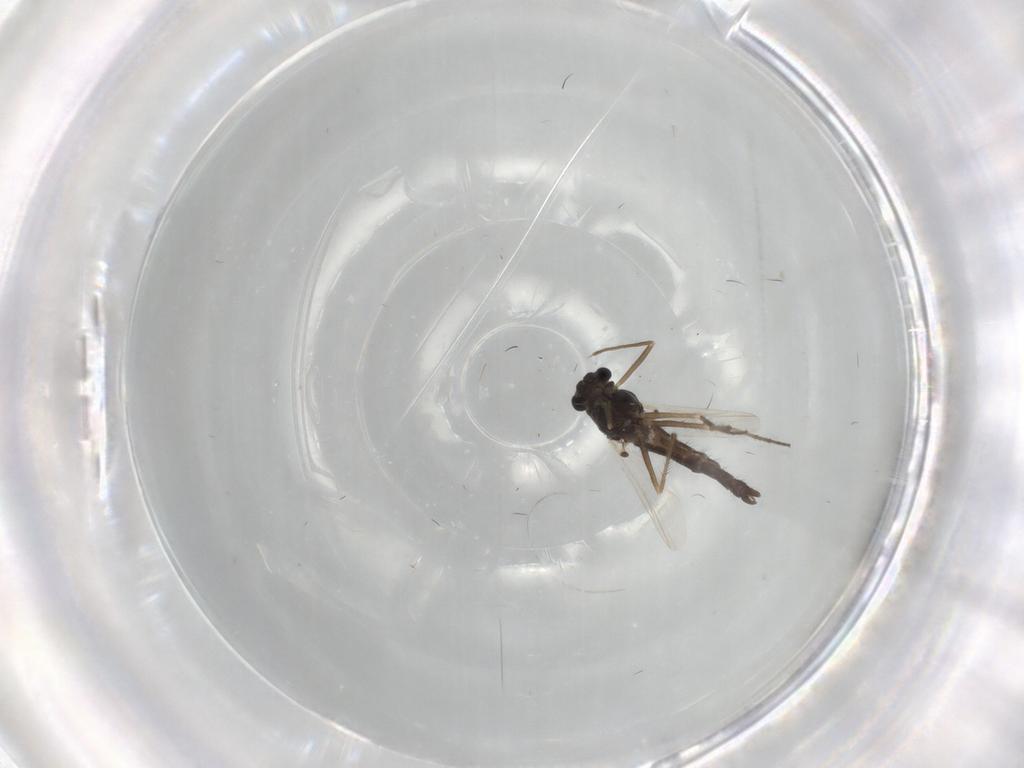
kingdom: Animalia
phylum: Arthropoda
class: Insecta
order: Diptera
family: Chironomidae
